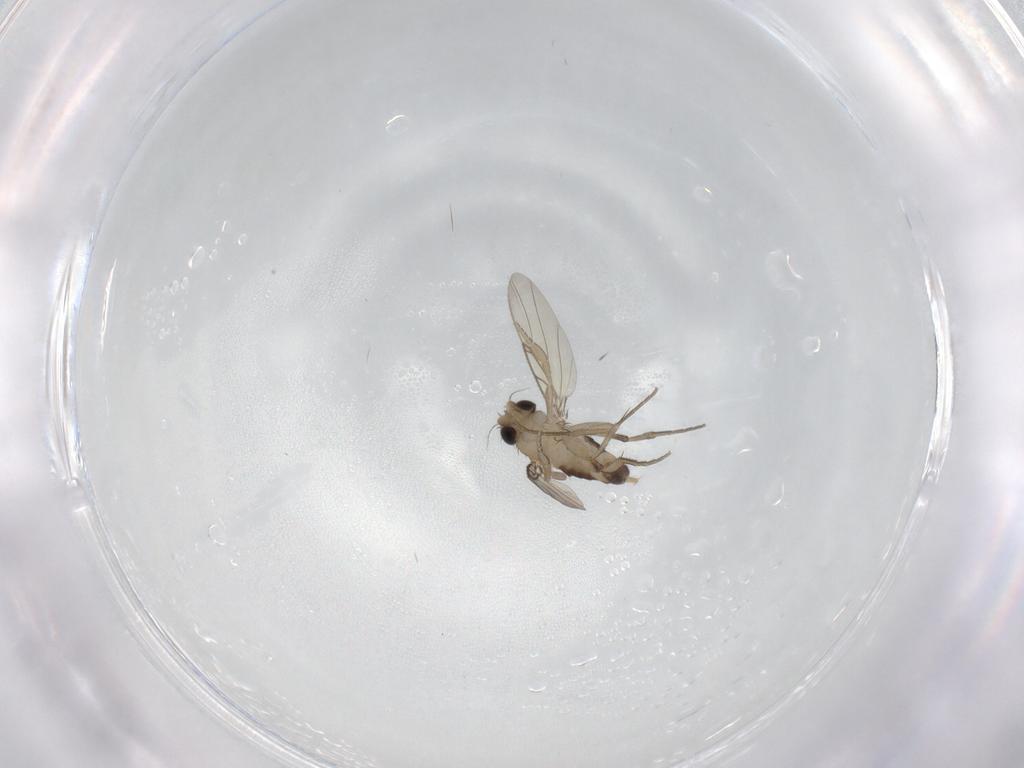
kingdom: Animalia
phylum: Arthropoda
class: Insecta
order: Diptera
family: Phoridae
